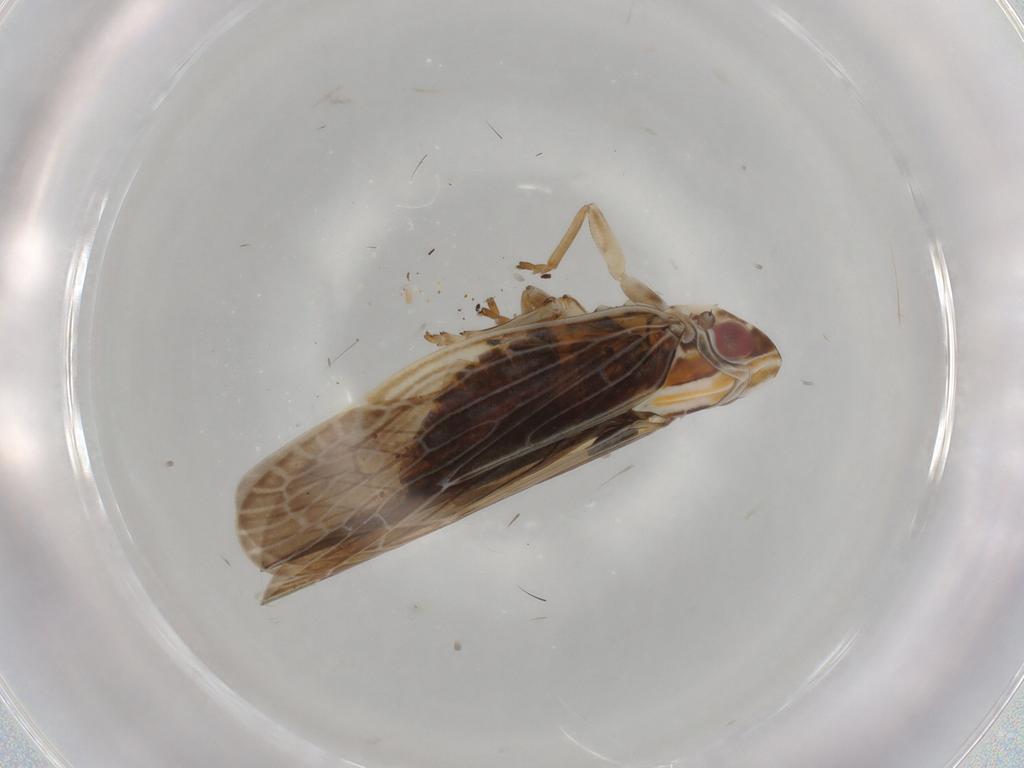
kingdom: Animalia
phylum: Arthropoda
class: Insecta
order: Hemiptera
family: Achilidae
